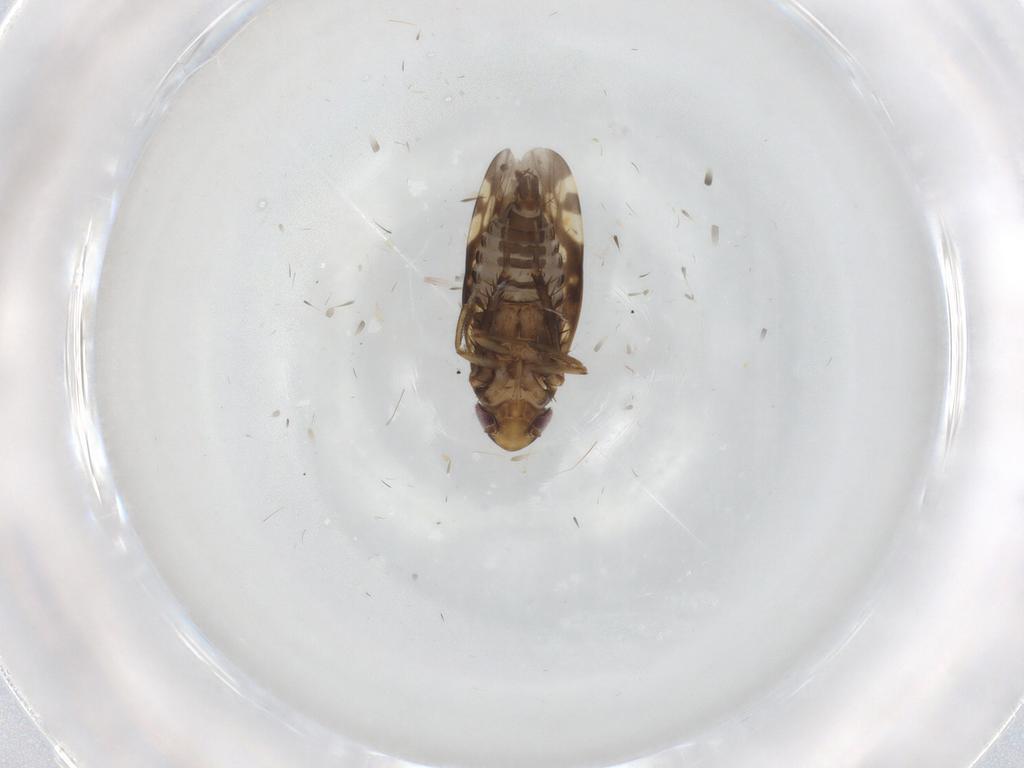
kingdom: Animalia
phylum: Arthropoda
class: Insecta
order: Hemiptera
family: Cicadellidae
